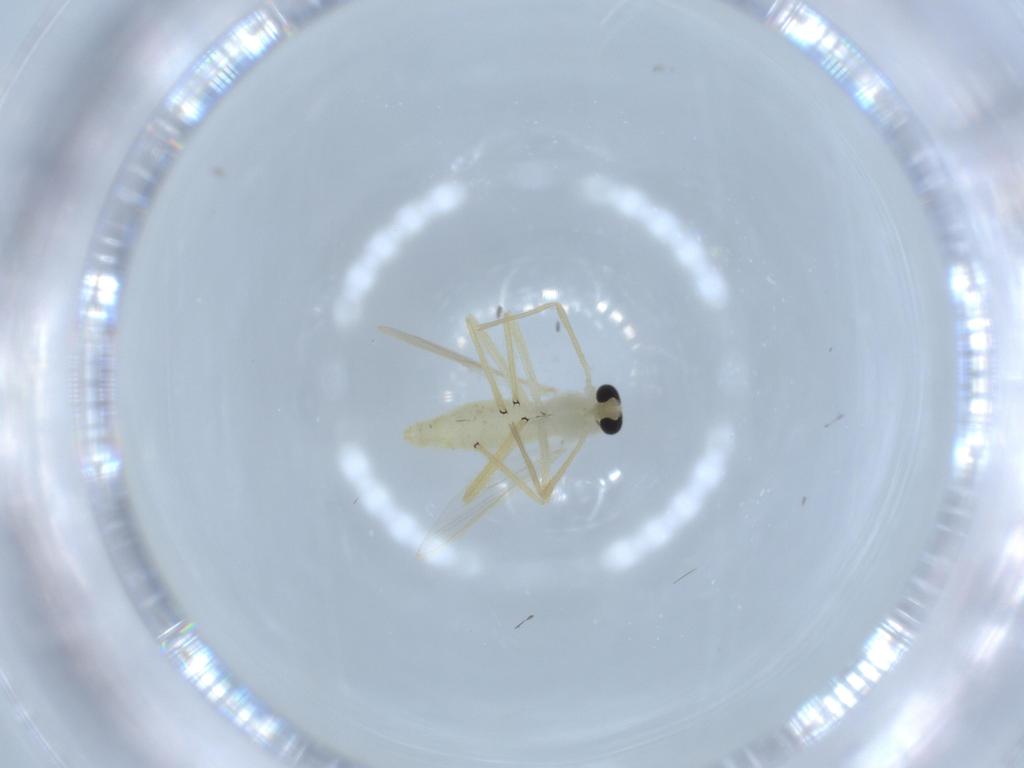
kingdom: Animalia
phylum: Arthropoda
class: Insecta
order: Diptera
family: Chironomidae
